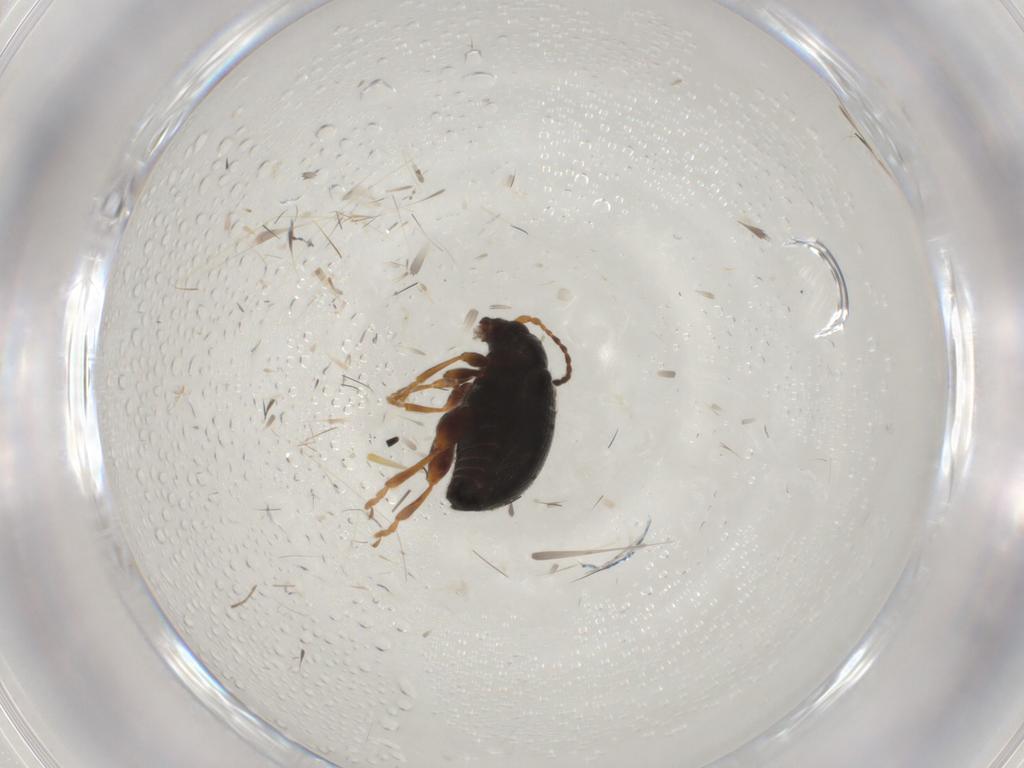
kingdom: Animalia
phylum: Arthropoda
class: Insecta
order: Coleoptera
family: Chrysomelidae
